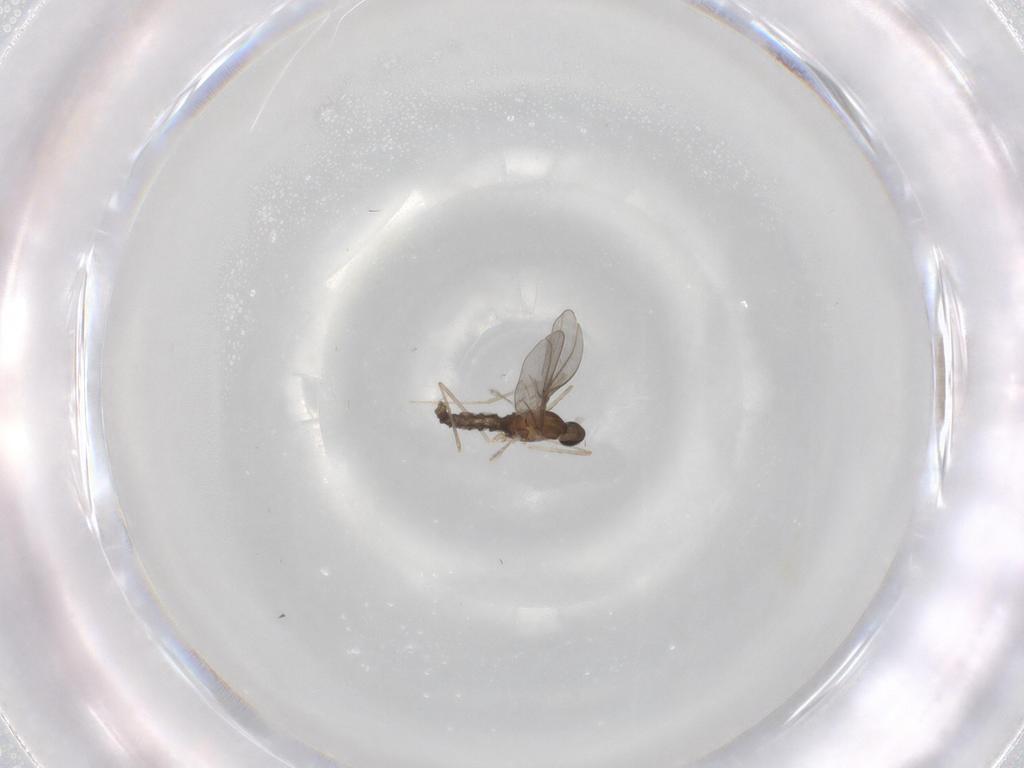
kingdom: Animalia
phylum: Arthropoda
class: Insecta
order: Diptera
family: Cecidomyiidae
